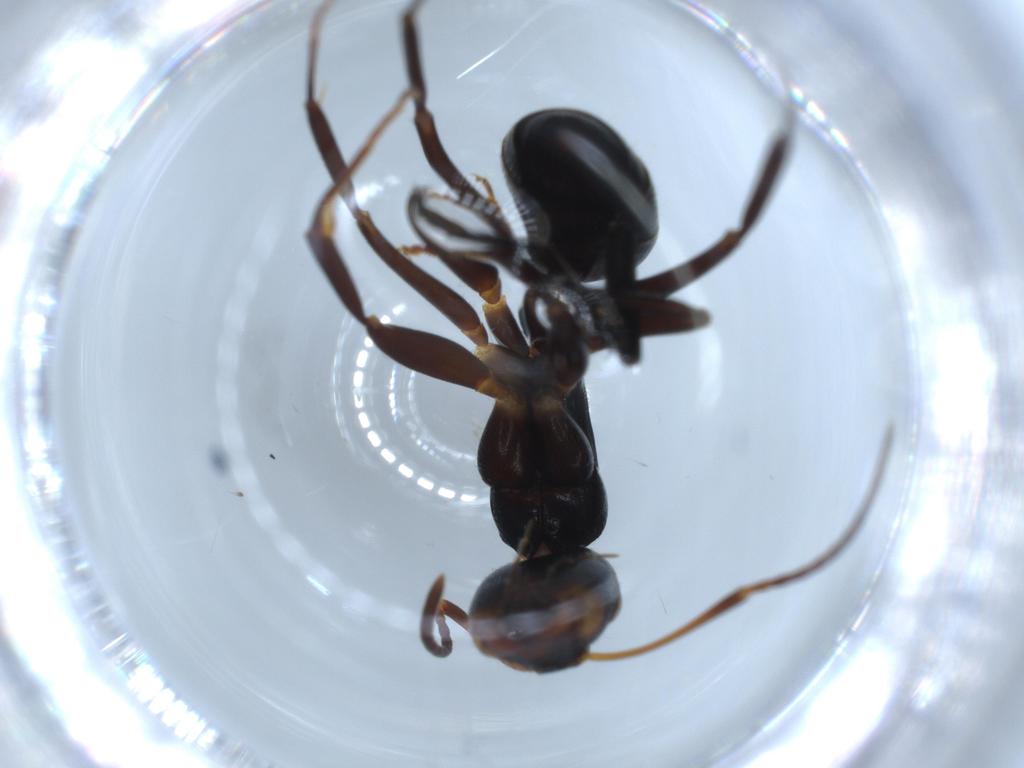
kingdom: Animalia
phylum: Arthropoda
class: Insecta
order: Hymenoptera
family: Formicidae
